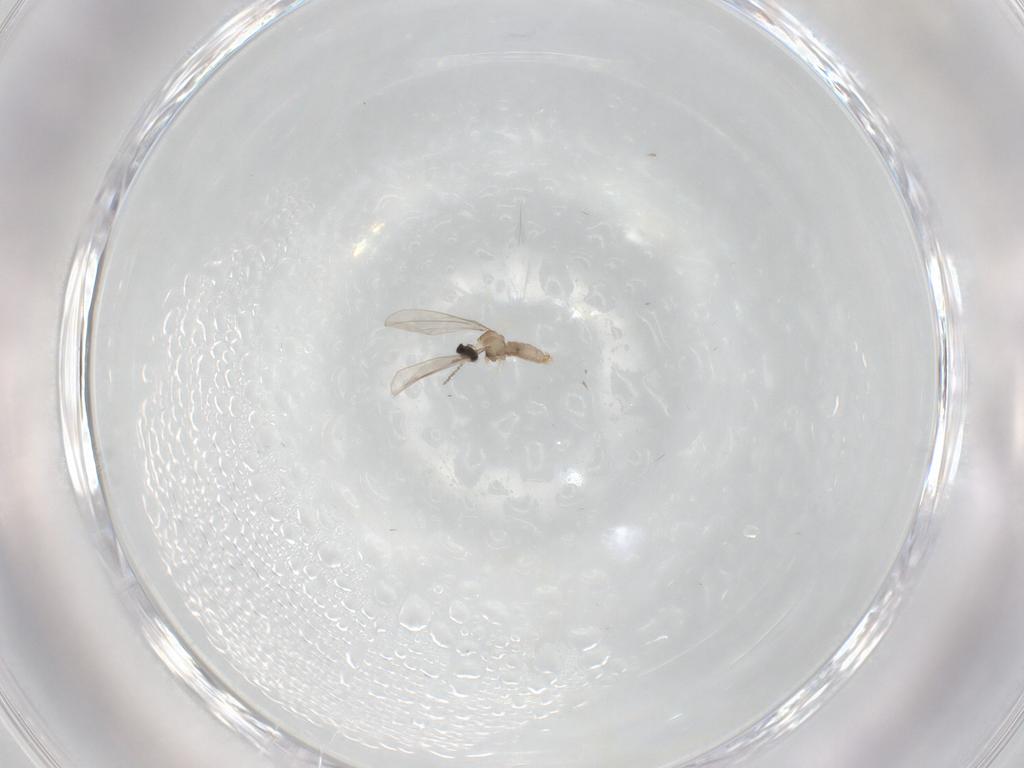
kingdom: Animalia
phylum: Arthropoda
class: Insecta
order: Diptera
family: Cecidomyiidae
